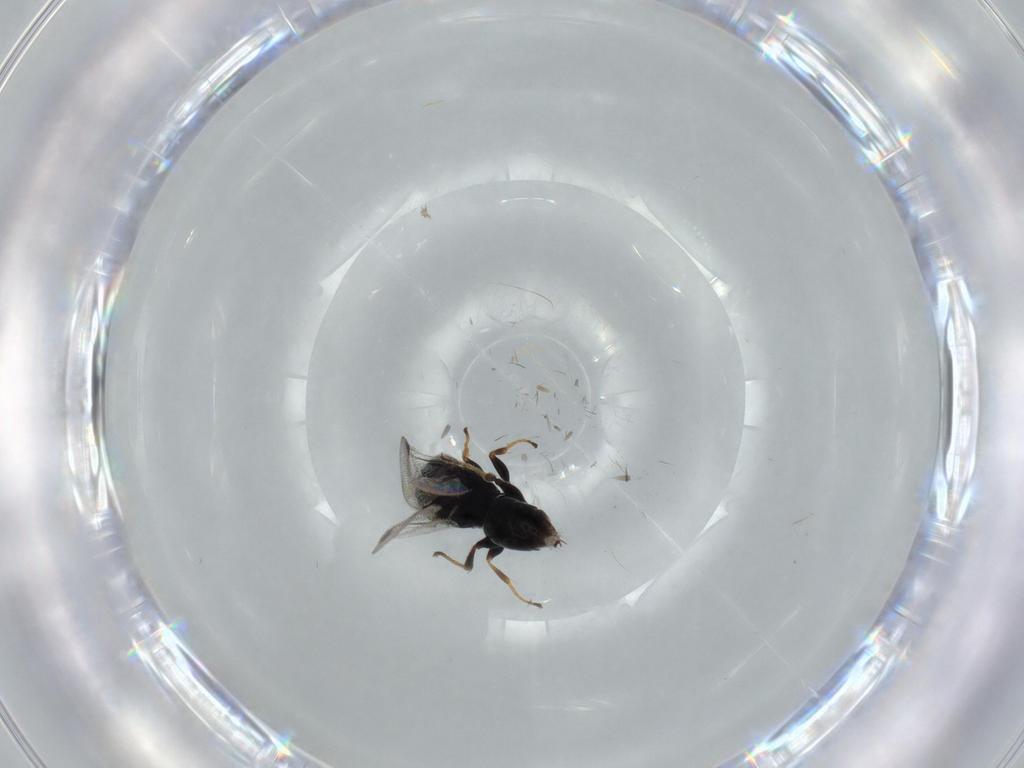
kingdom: Animalia
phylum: Arthropoda
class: Insecta
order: Hymenoptera
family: Dryinidae
